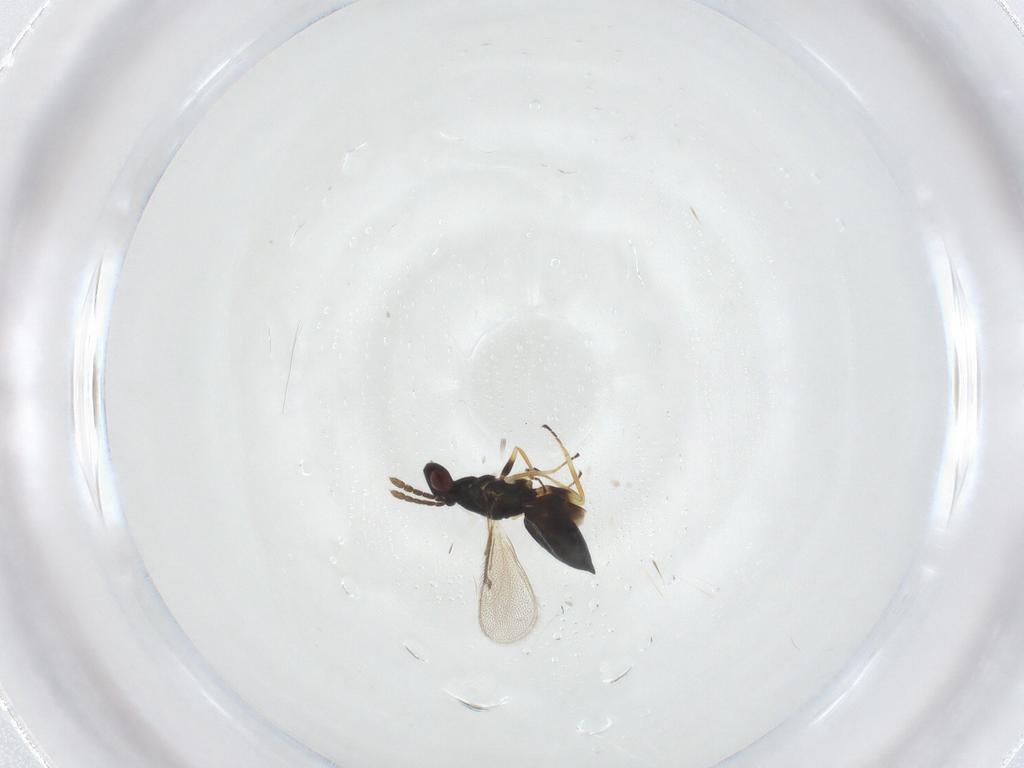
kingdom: Animalia
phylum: Arthropoda
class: Insecta
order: Hymenoptera
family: Eulophidae
